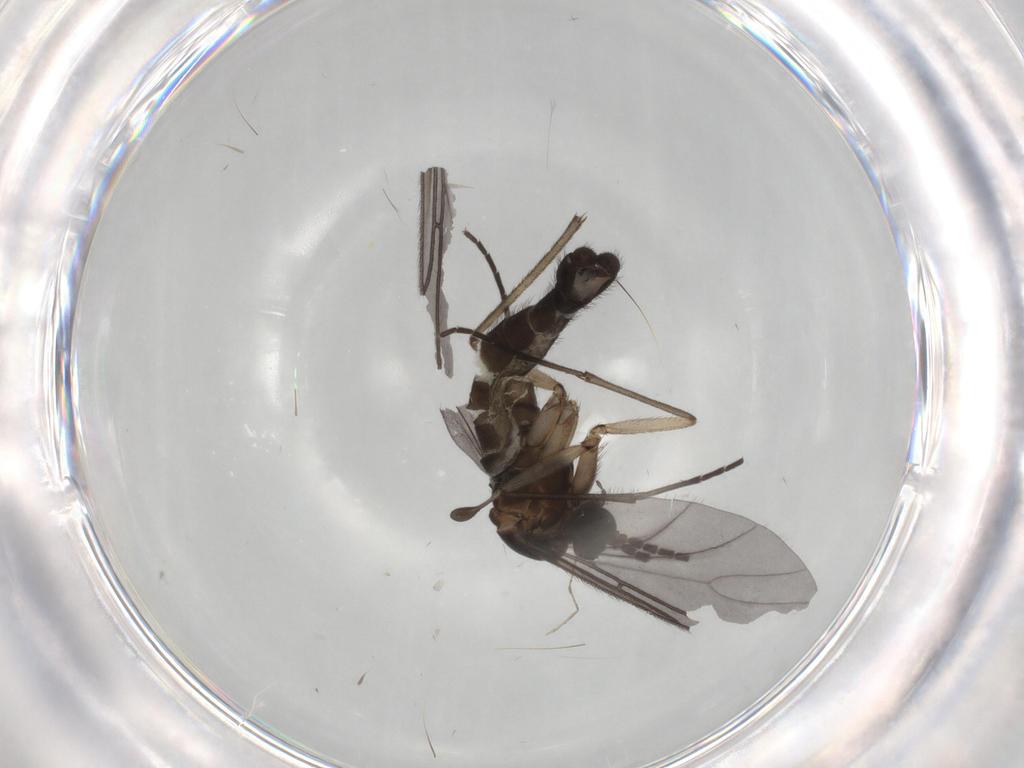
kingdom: Animalia
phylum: Arthropoda
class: Insecta
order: Diptera
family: Sciaridae
